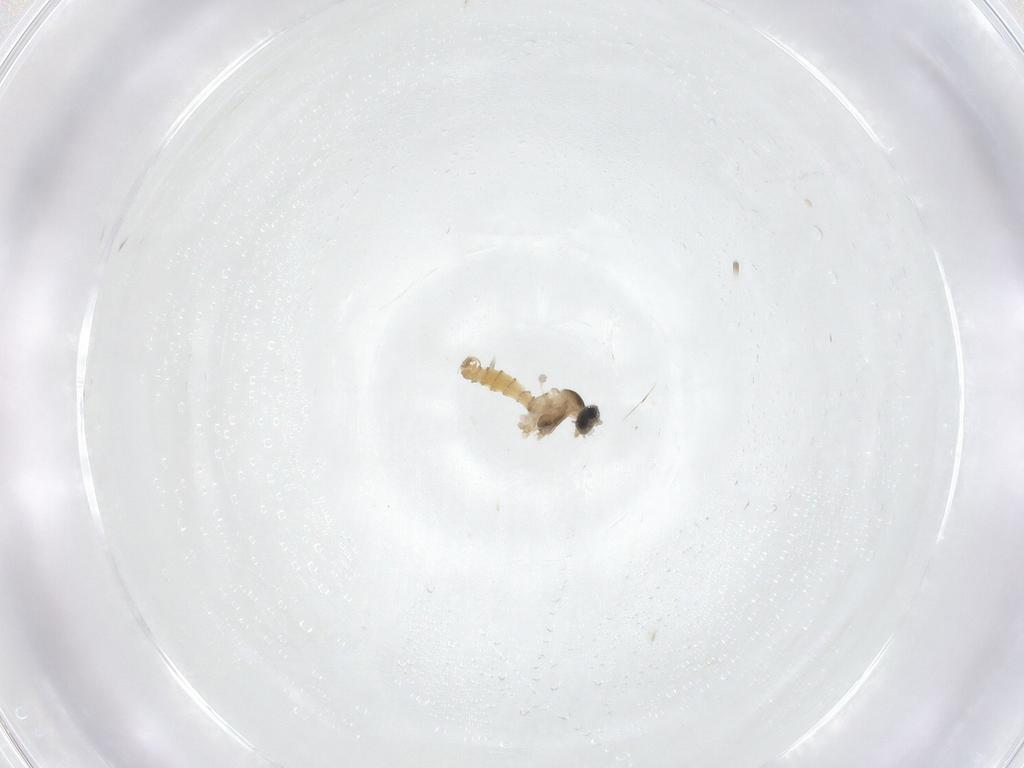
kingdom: Animalia
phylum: Arthropoda
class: Insecta
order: Diptera
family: Cecidomyiidae
